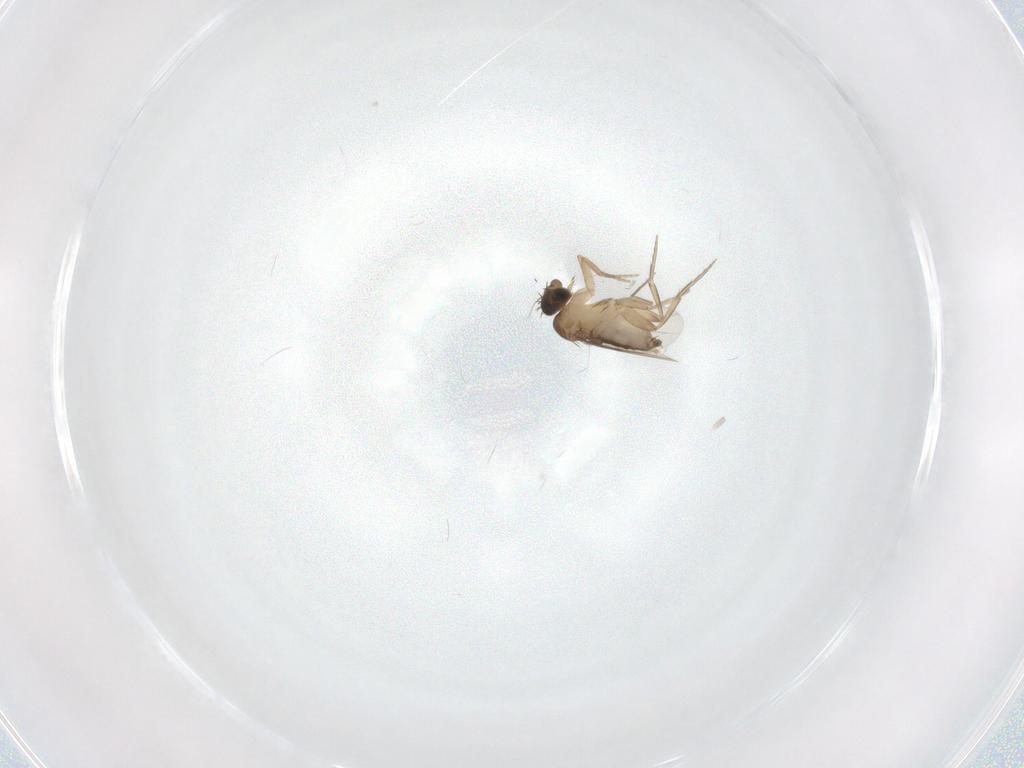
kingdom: Animalia
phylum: Arthropoda
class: Insecta
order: Diptera
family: Phoridae
